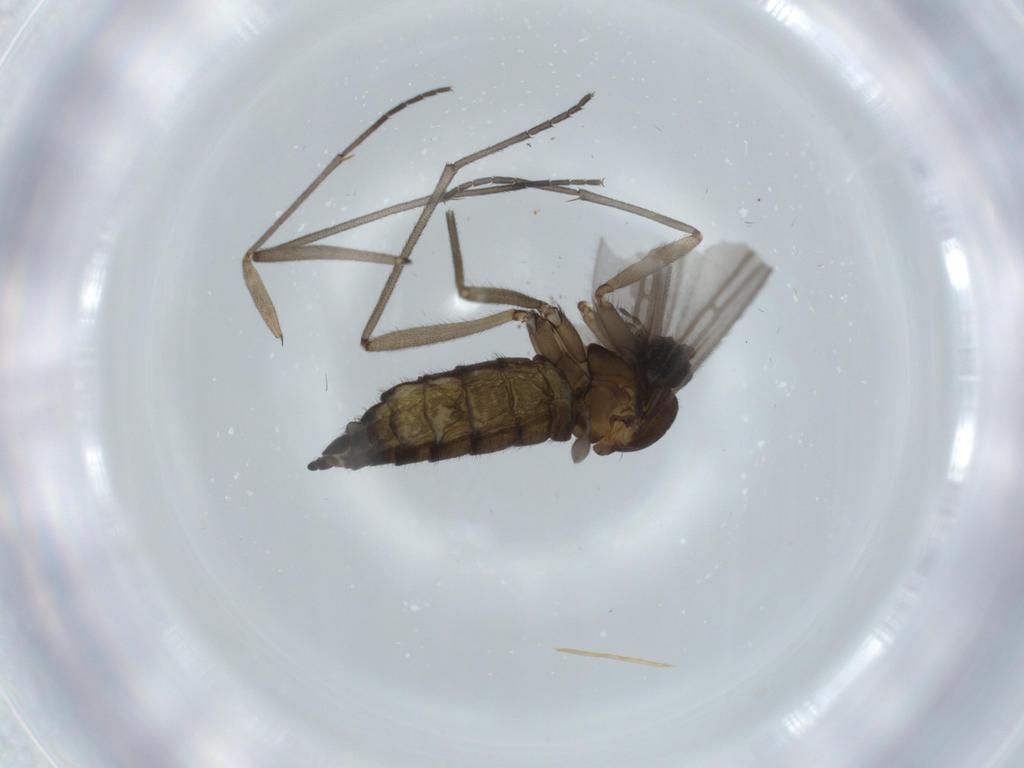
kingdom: Animalia
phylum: Arthropoda
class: Insecta
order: Diptera
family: Sciaridae
